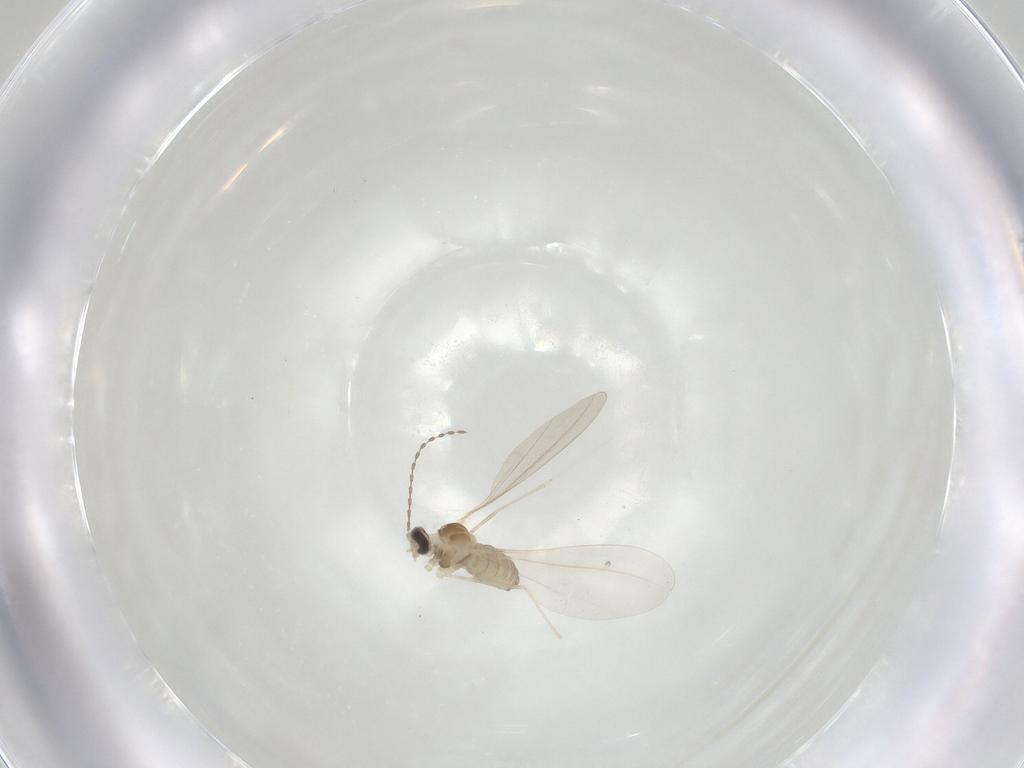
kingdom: Animalia
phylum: Arthropoda
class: Insecta
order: Diptera
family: Cecidomyiidae
